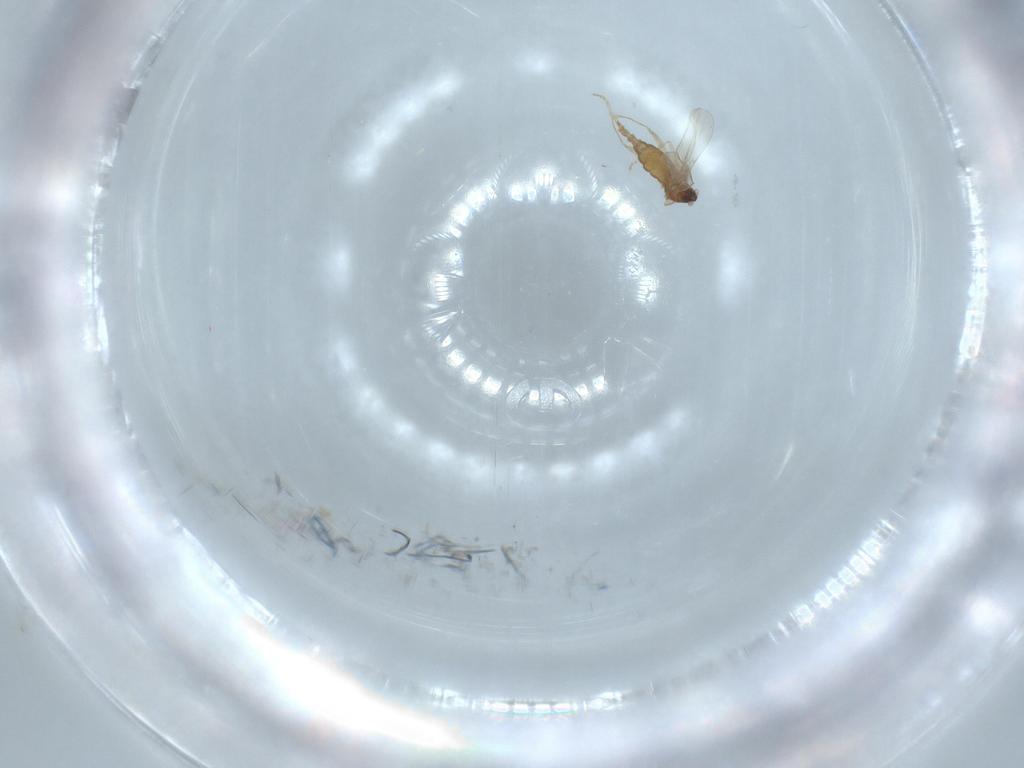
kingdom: Animalia
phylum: Arthropoda
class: Insecta
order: Diptera
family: Cecidomyiidae
